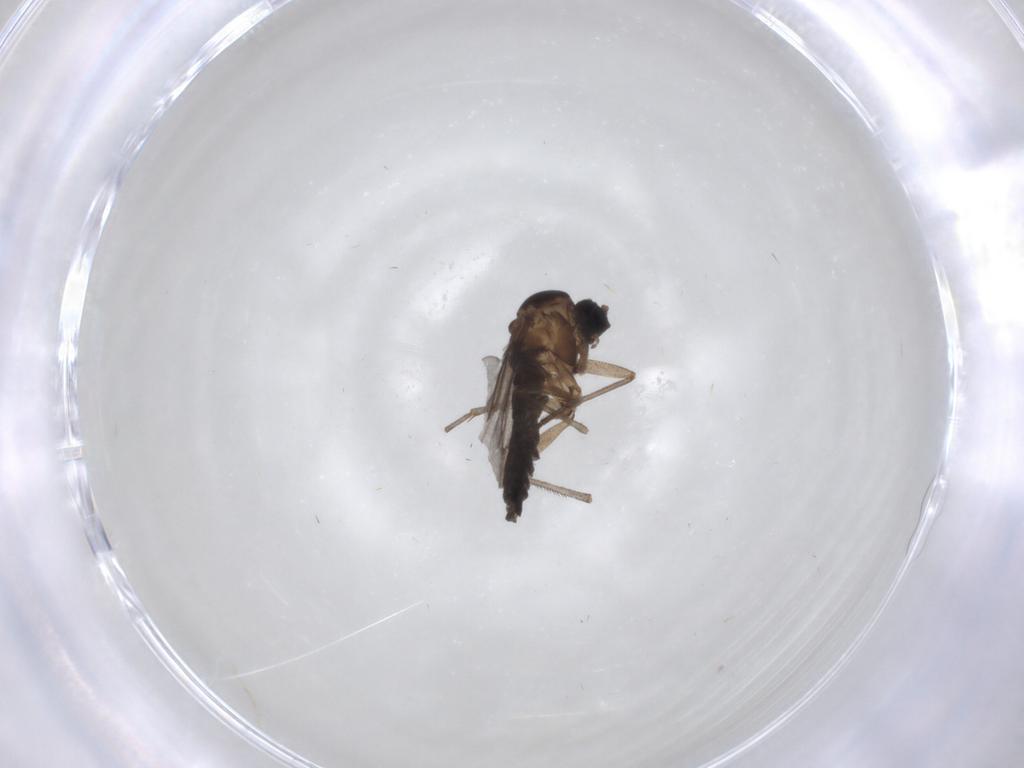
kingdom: Animalia
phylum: Arthropoda
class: Insecta
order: Diptera
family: Sciaridae
